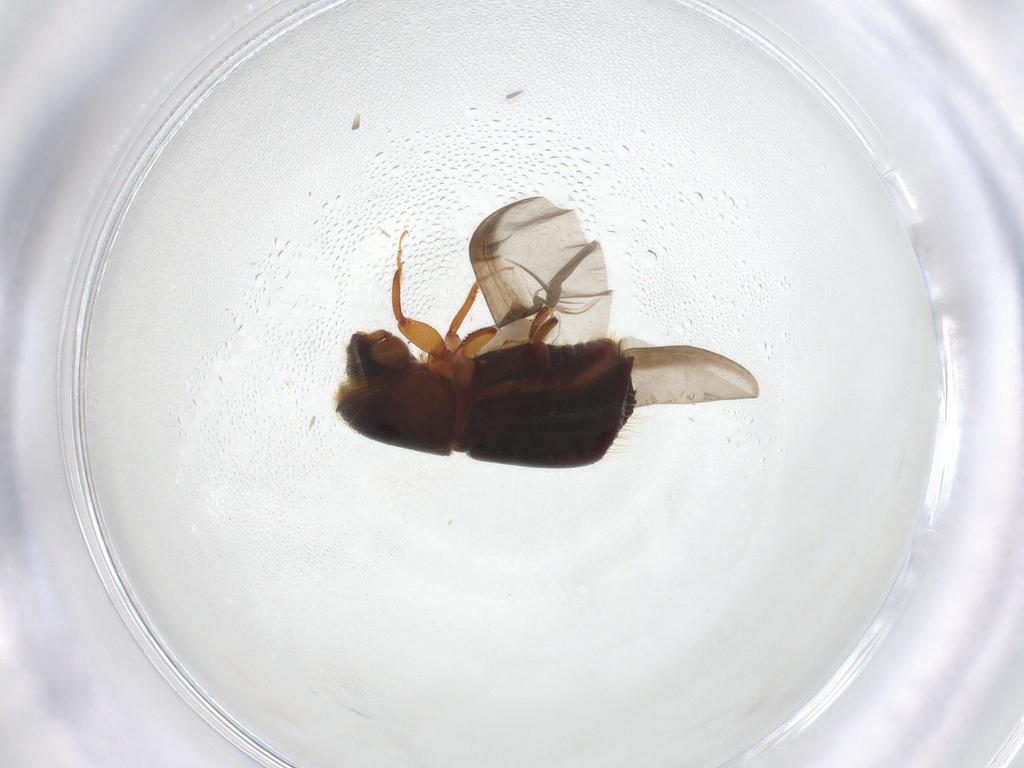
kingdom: Animalia
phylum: Arthropoda
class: Insecta
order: Coleoptera
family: Curculionidae
